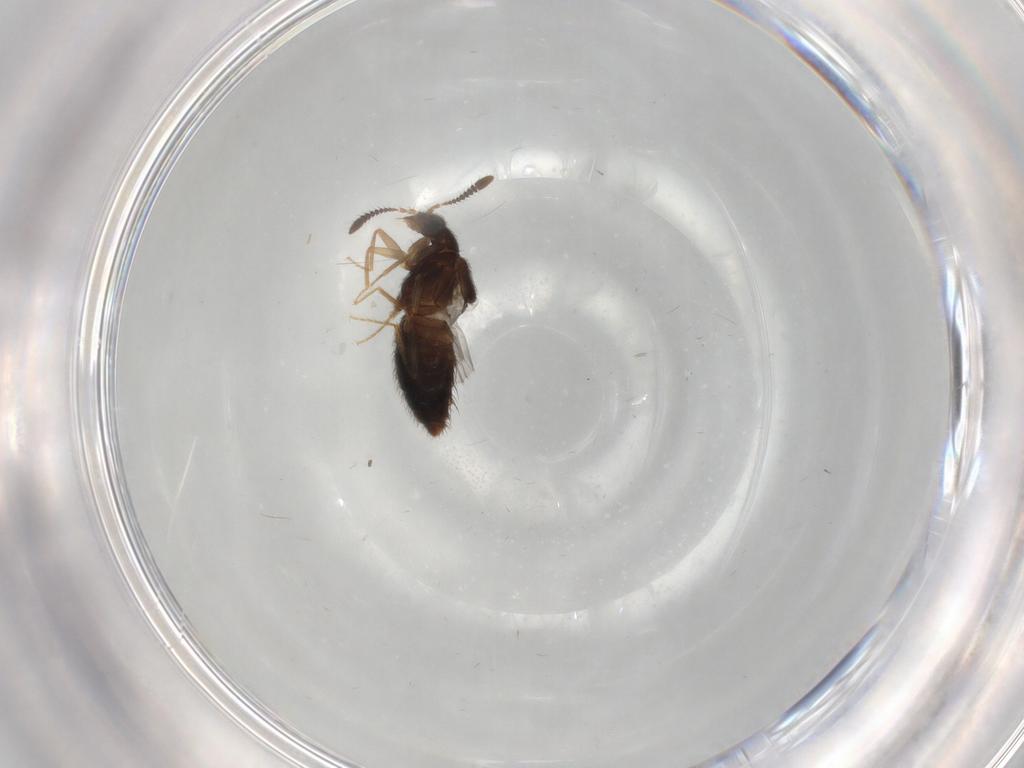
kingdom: Animalia
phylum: Arthropoda
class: Insecta
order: Coleoptera
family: Staphylinidae
